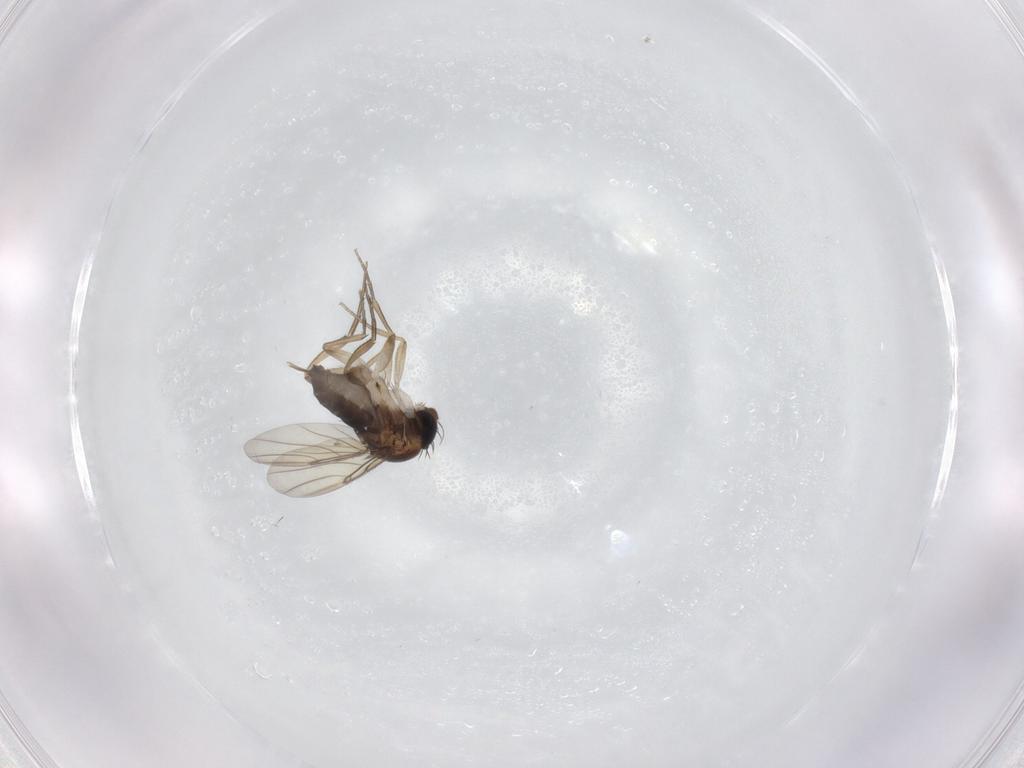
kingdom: Animalia
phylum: Arthropoda
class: Insecta
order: Diptera
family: Phoridae
